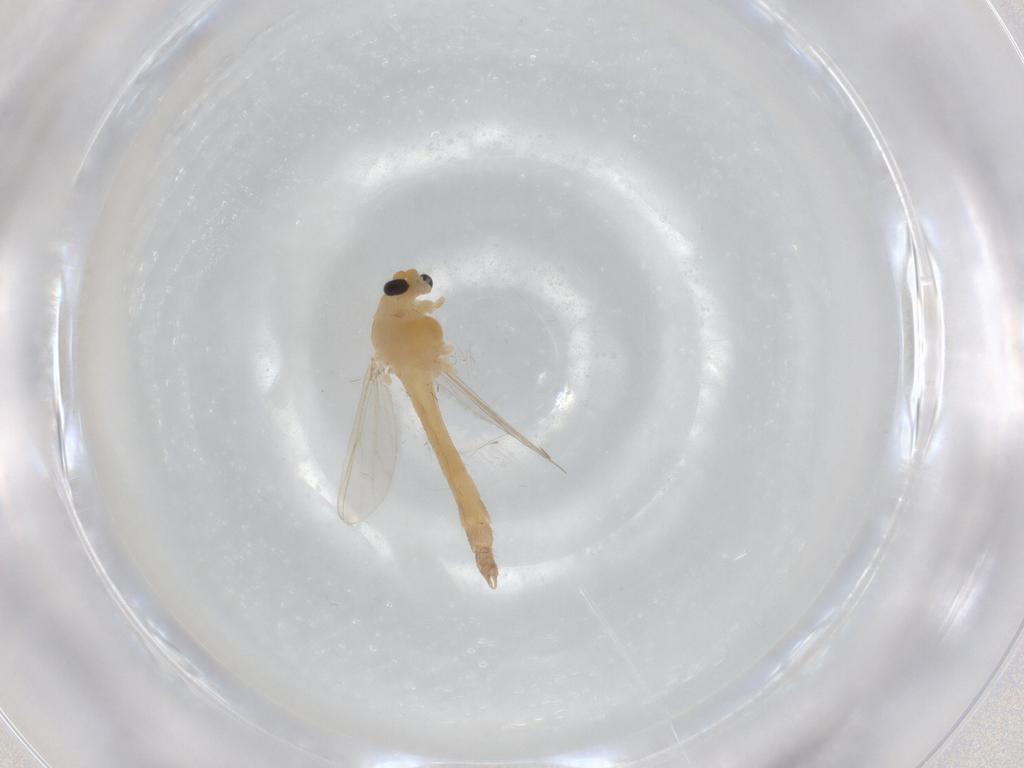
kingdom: Animalia
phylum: Arthropoda
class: Insecta
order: Diptera
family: Chironomidae
